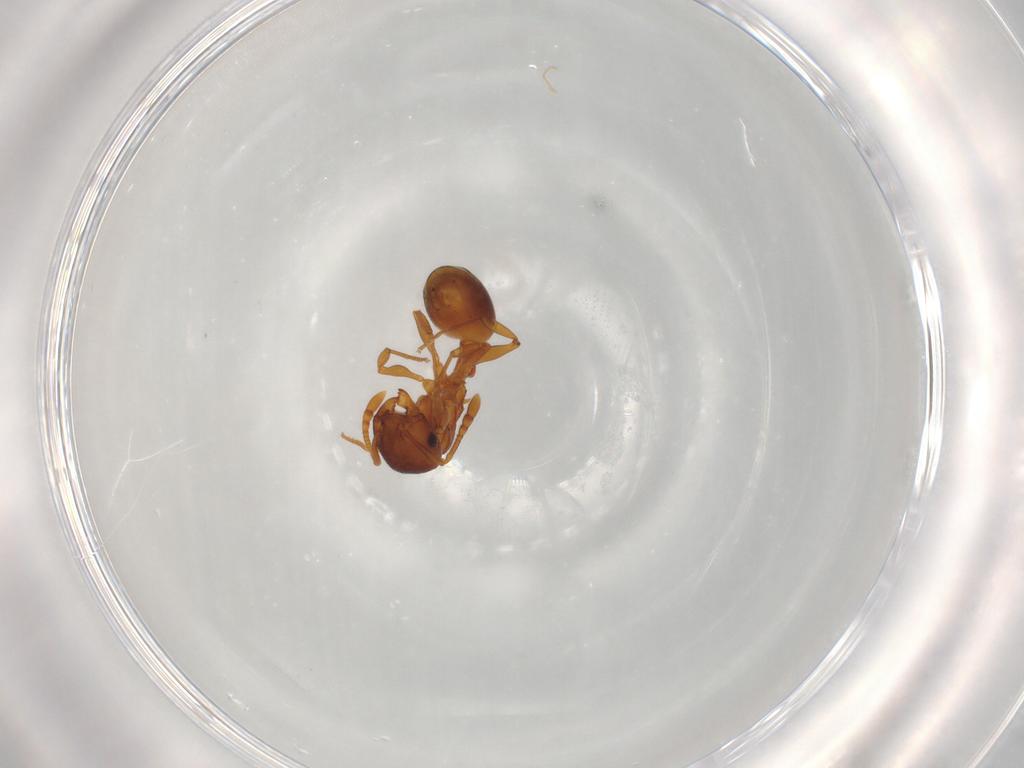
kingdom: Animalia
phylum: Arthropoda
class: Insecta
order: Hymenoptera
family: Formicidae
